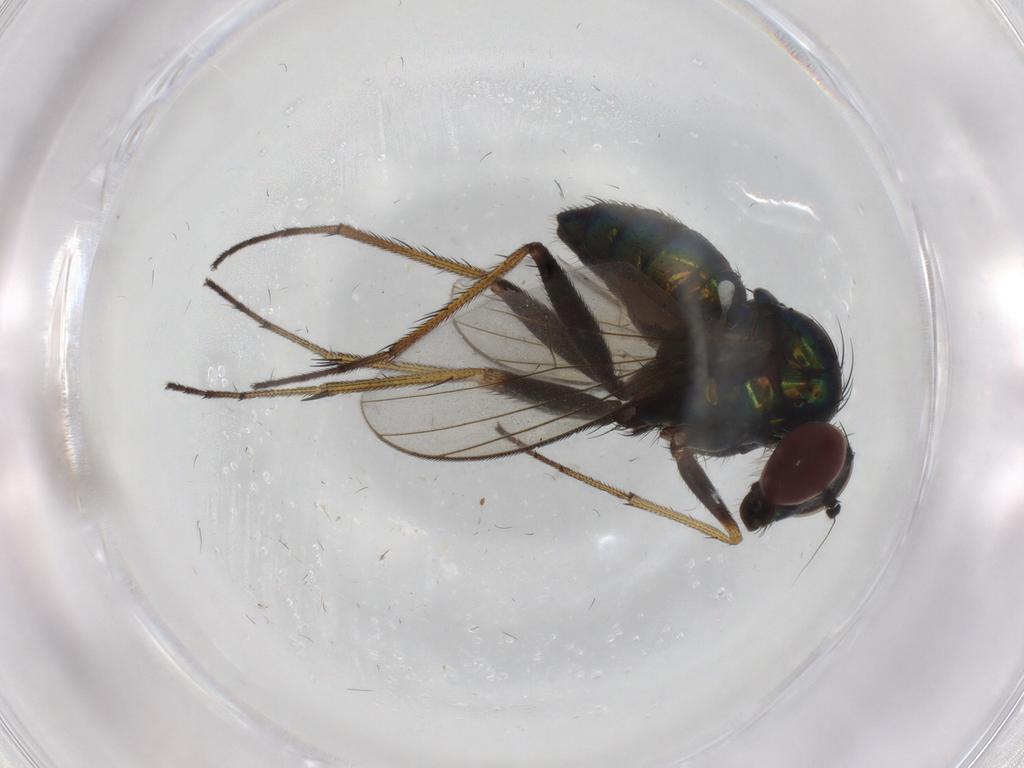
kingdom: Animalia
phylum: Arthropoda
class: Insecta
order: Diptera
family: Dolichopodidae
